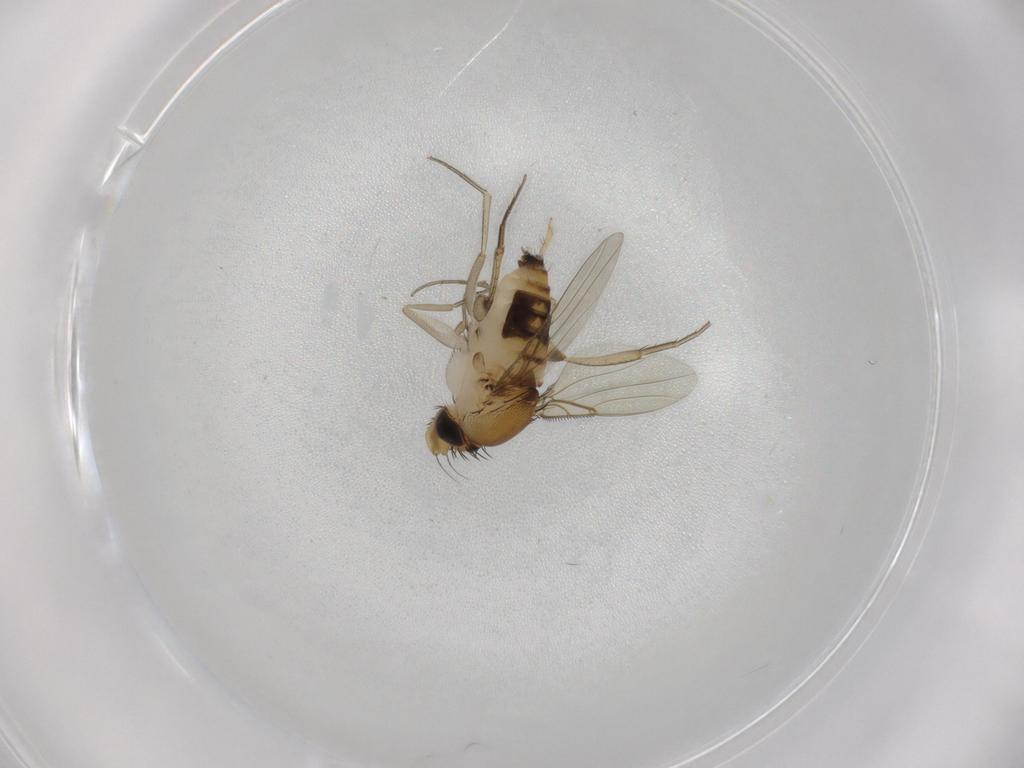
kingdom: Animalia
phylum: Arthropoda
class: Insecta
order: Diptera
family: Phoridae
